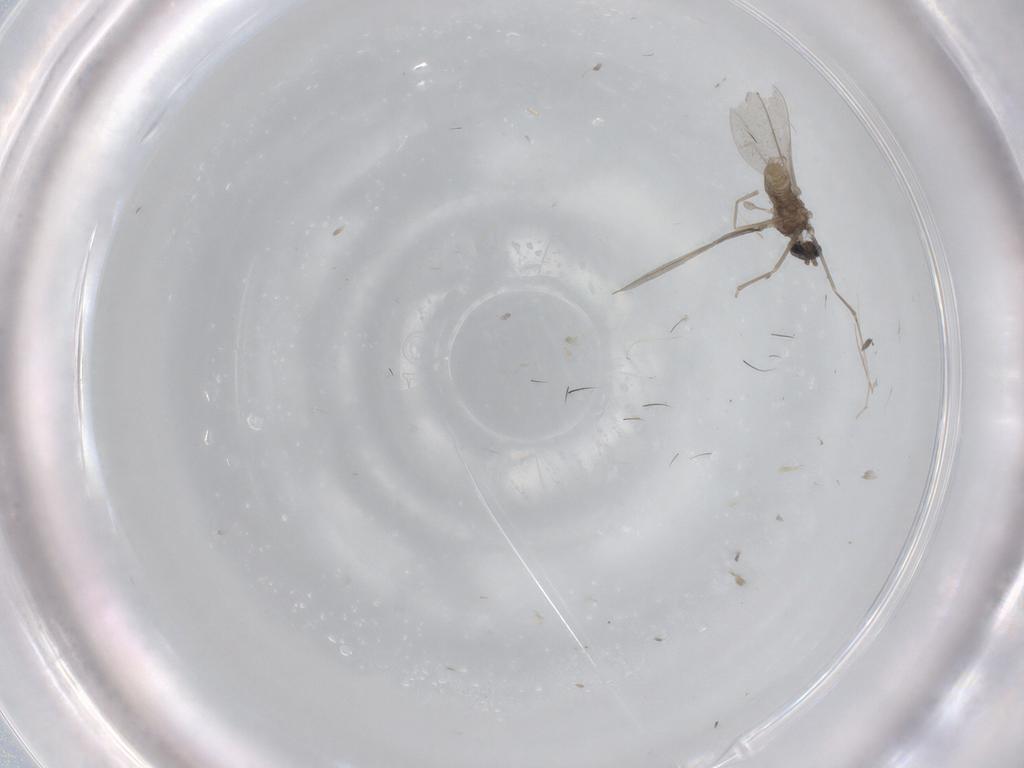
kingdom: Animalia
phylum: Arthropoda
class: Insecta
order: Diptera
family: Cecidomyiidae
